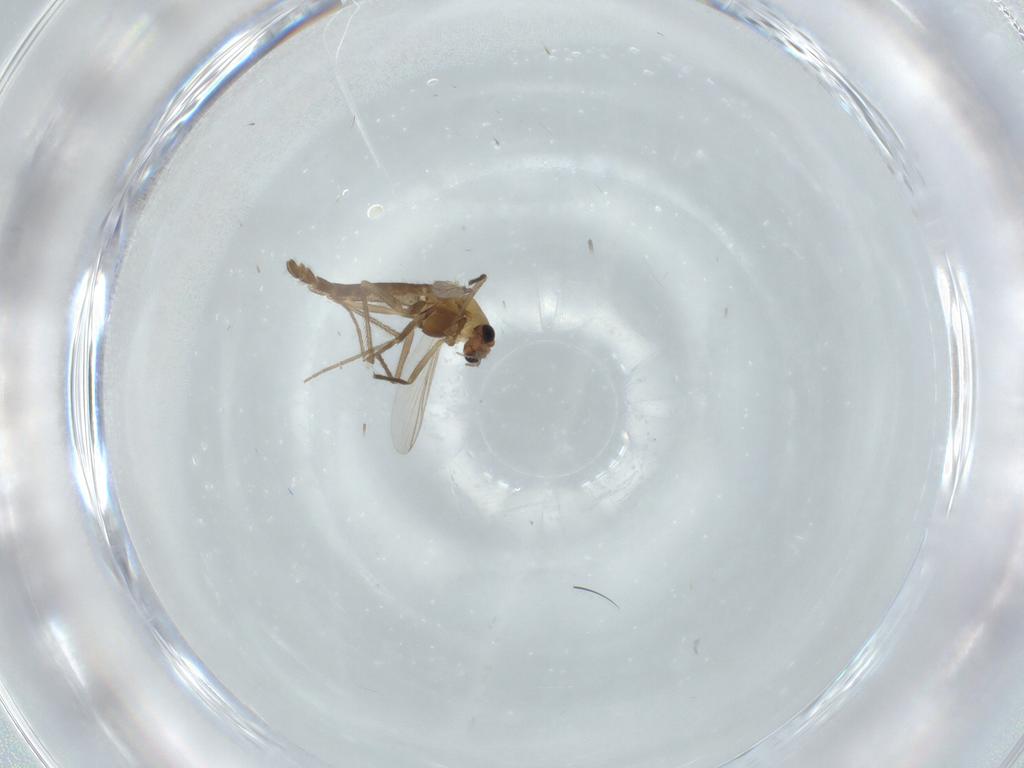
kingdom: Animalia
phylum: Arthropoda
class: Insecta
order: Diptera
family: Chironomidae
